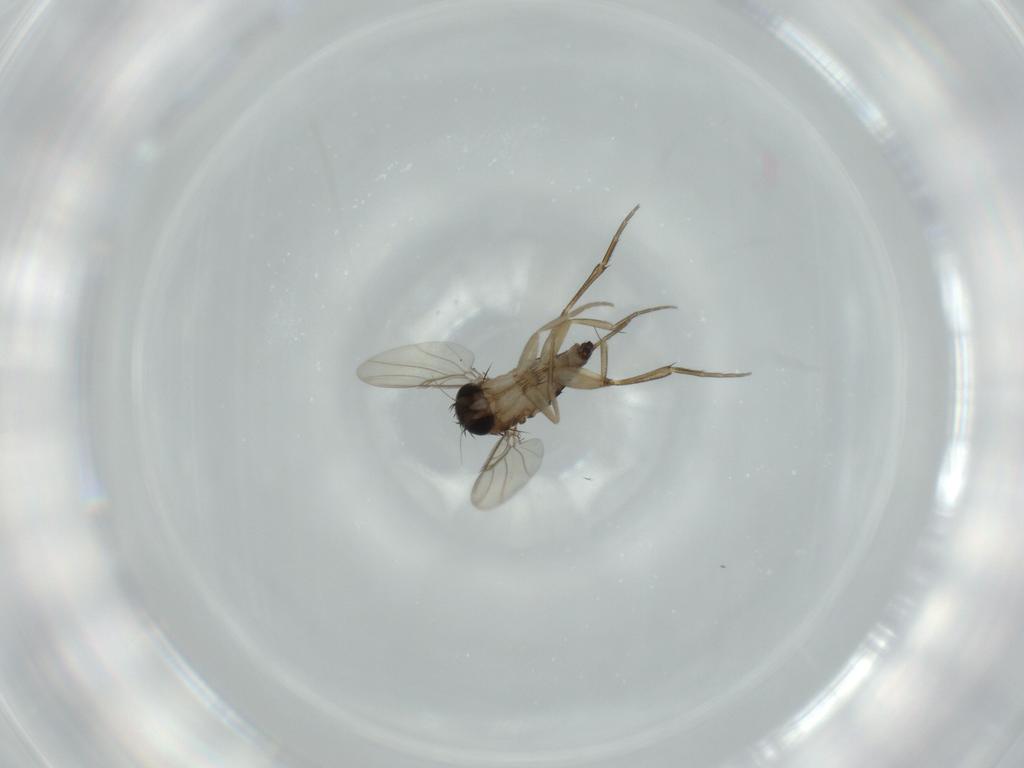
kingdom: Animalia
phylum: Arthropoda
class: Insecta
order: Diptera
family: Phoridae
